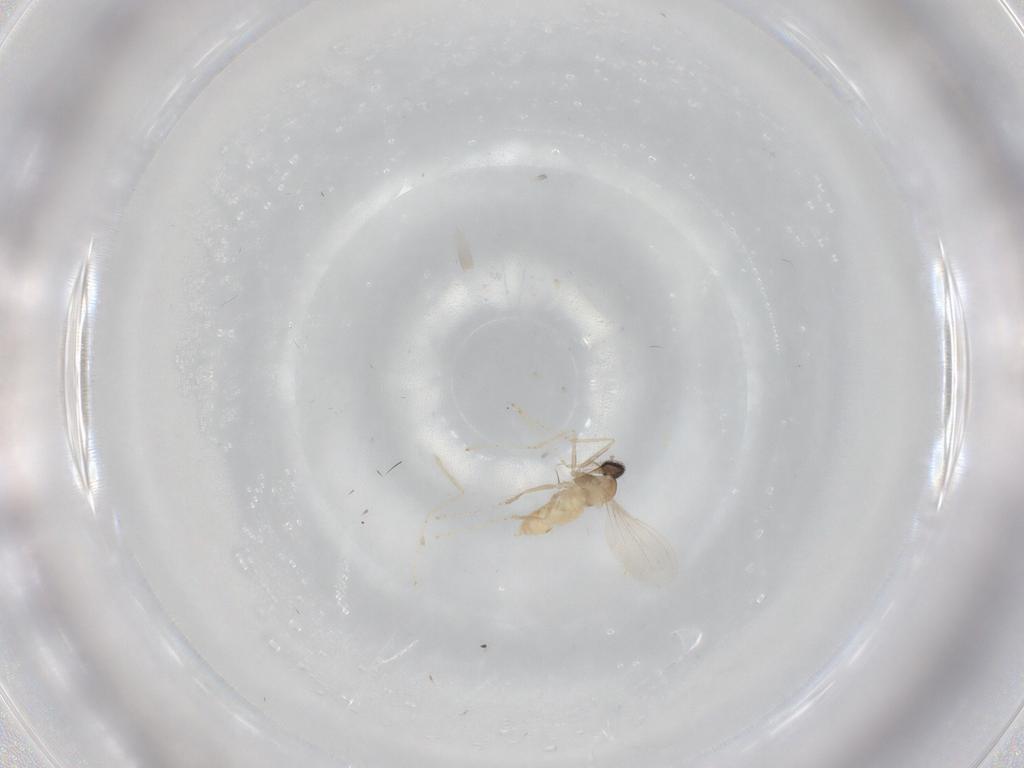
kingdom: Animalia
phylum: Arthropoda
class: Insecta
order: Diptera
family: Cecidomyiidae
